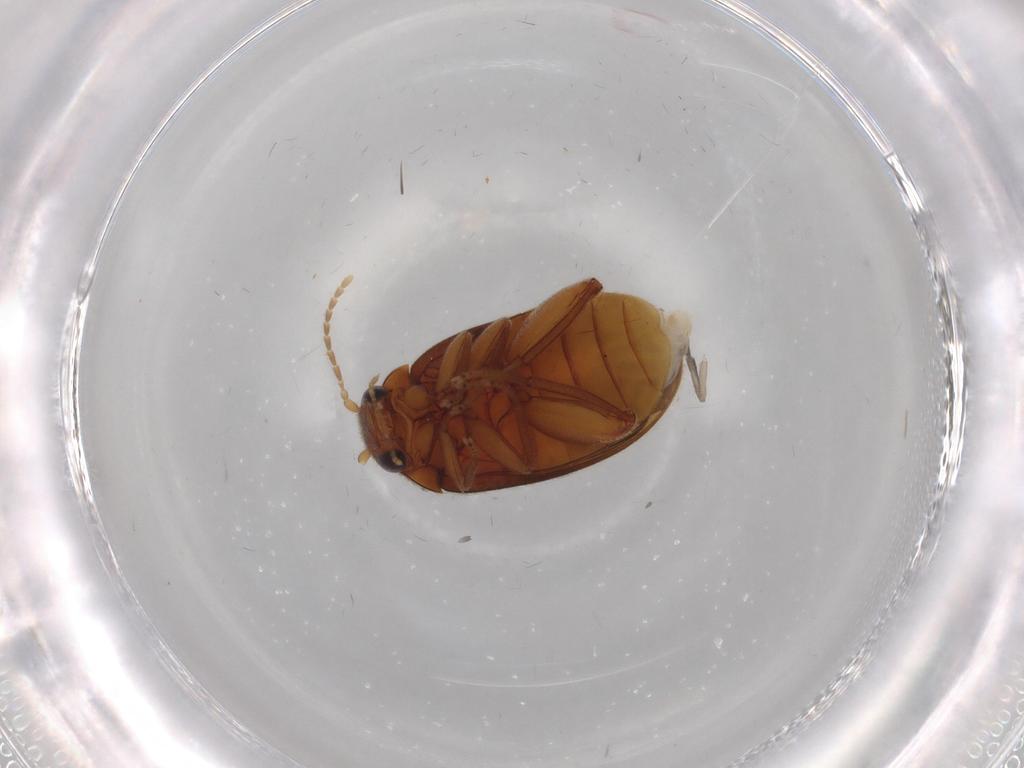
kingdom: Animalia
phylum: Arthropoda
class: Insecta
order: Coleoptera
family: Scirtidae
